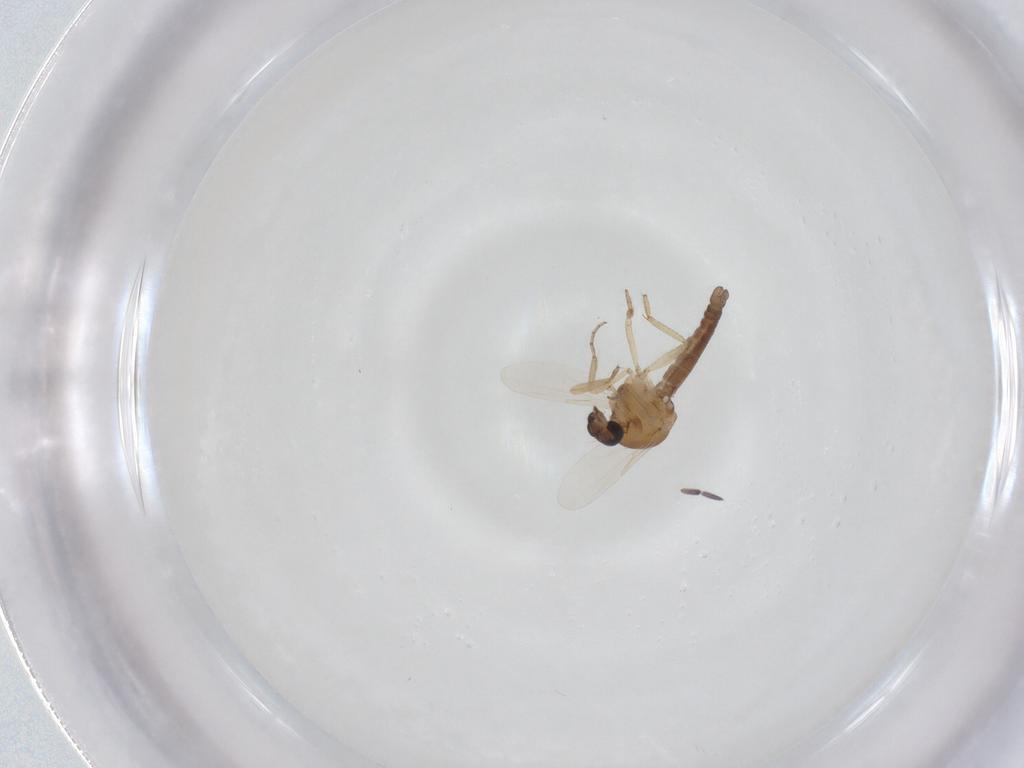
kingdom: Animalia
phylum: Arthropoda
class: Insecta
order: Diptera
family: Ceratopogonidae
